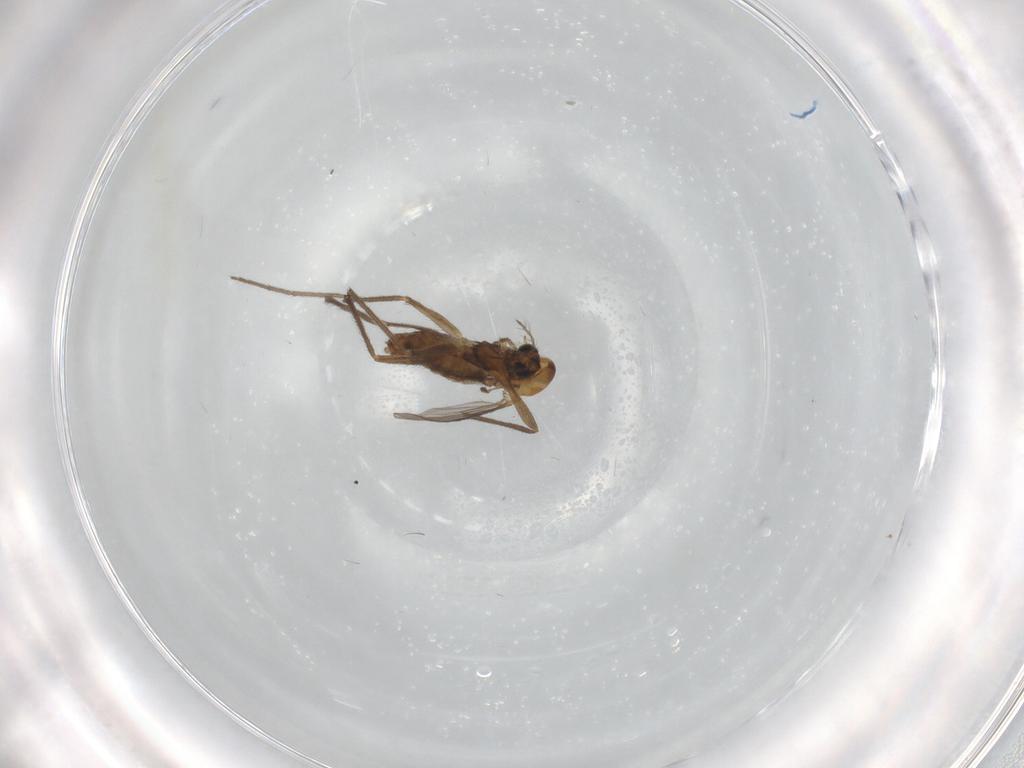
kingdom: Animalia
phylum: Arthropoda
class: Insecta
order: Diptera
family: Chironomidae
